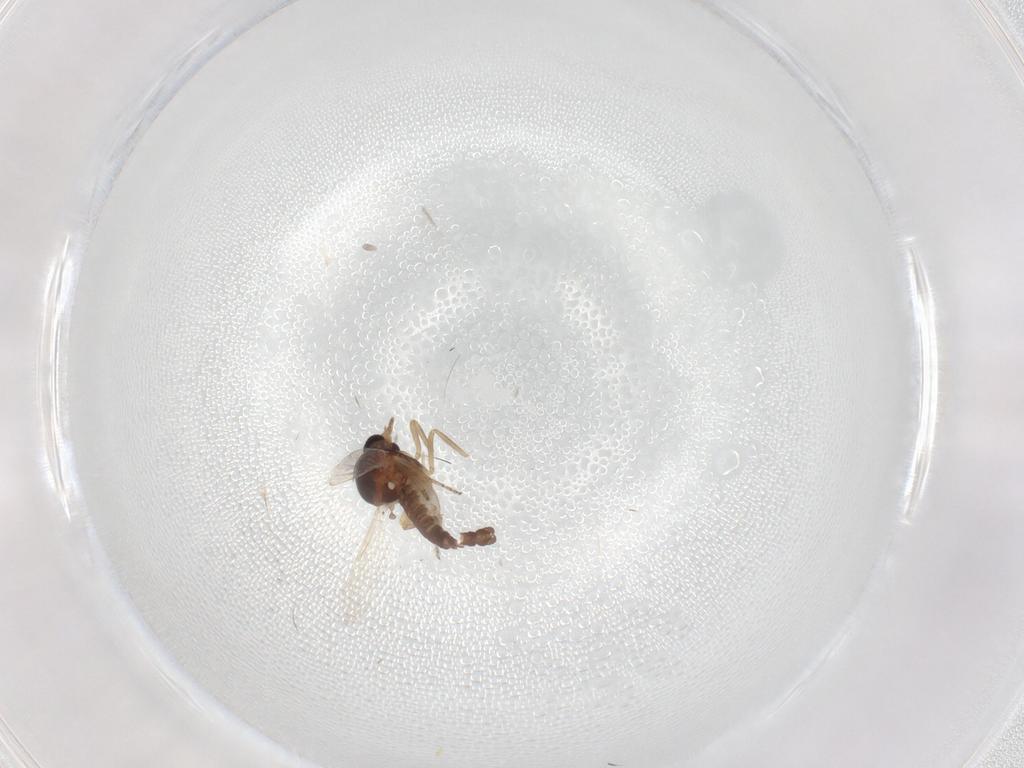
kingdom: Animalia
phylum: Arthropoda
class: Insecta
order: Diptera
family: Ceratopogonidae
